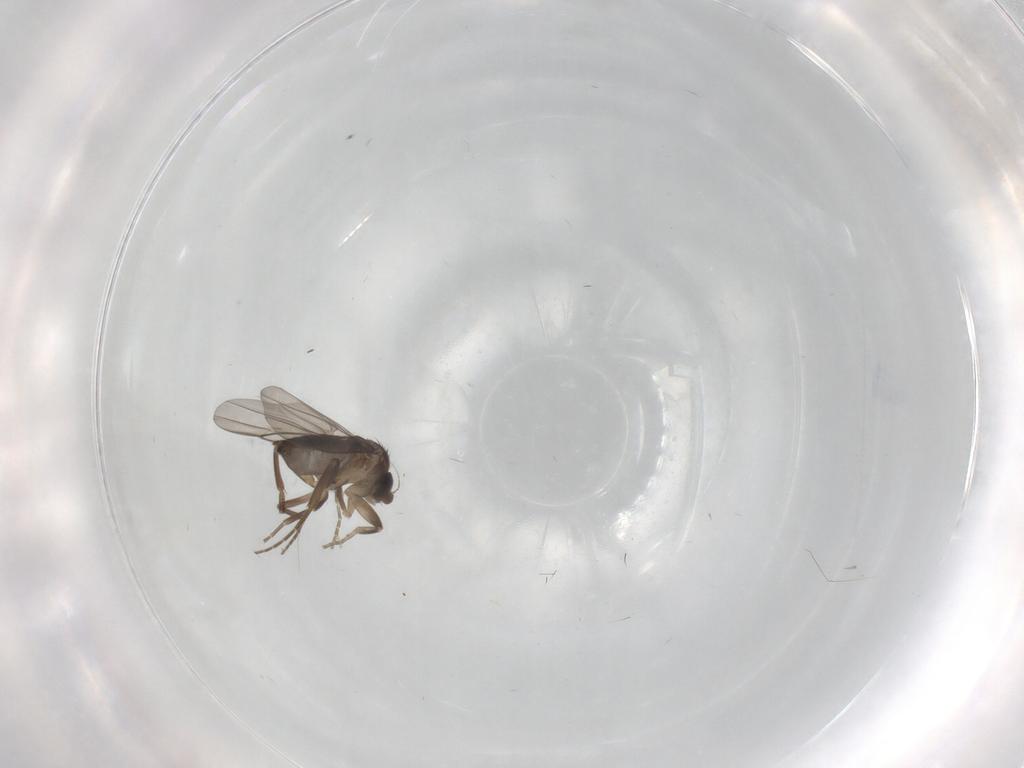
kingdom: Animalia
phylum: Arthropoda
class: Insecta
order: Diptera
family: Phoridae
